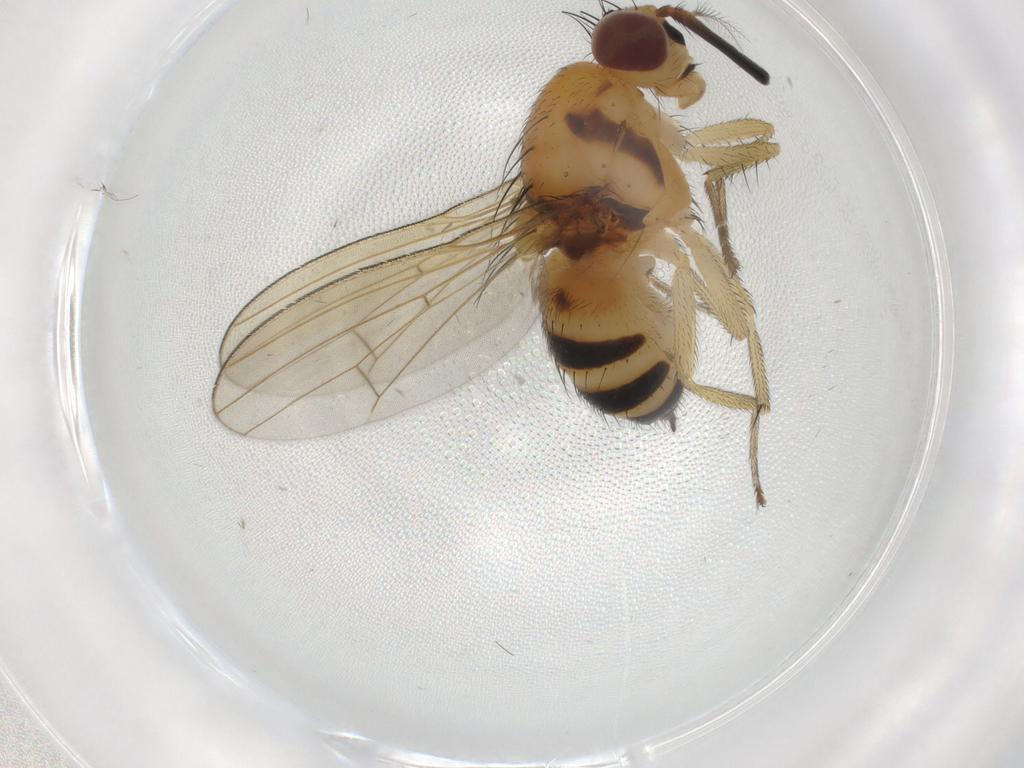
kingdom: Animalia
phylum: Arthropoda
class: Insecta
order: Diptera
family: Lauxaniidae
